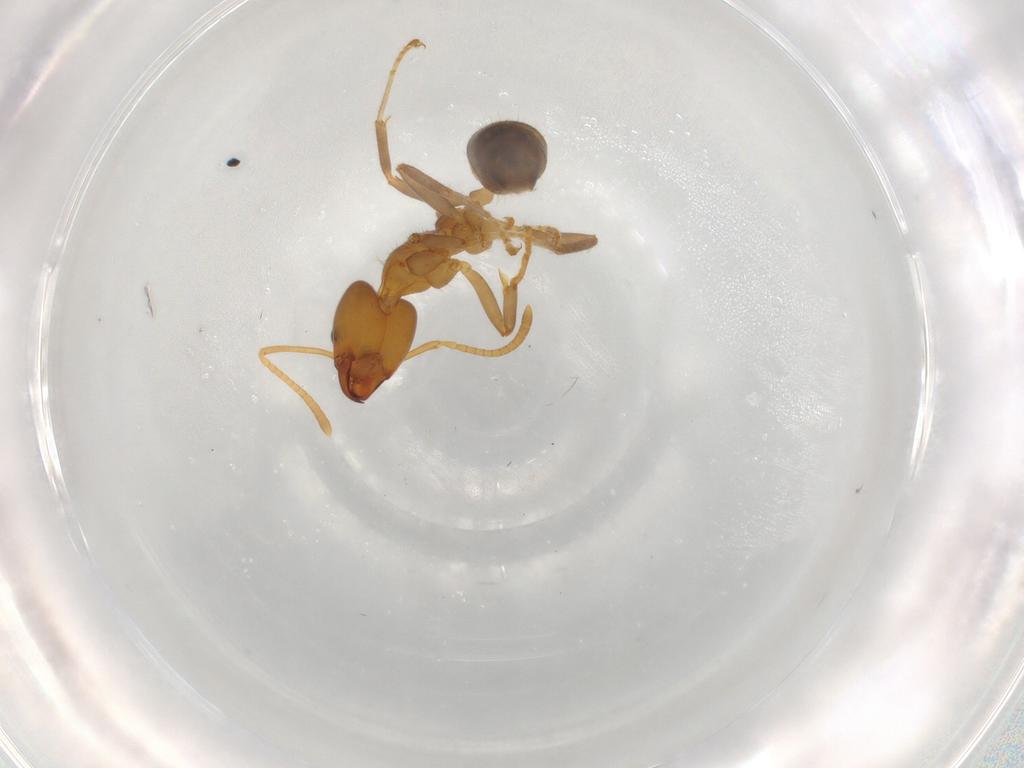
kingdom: Animalia
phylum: Arthropoda
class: Insecta
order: Hymenoptera
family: Formicidae
